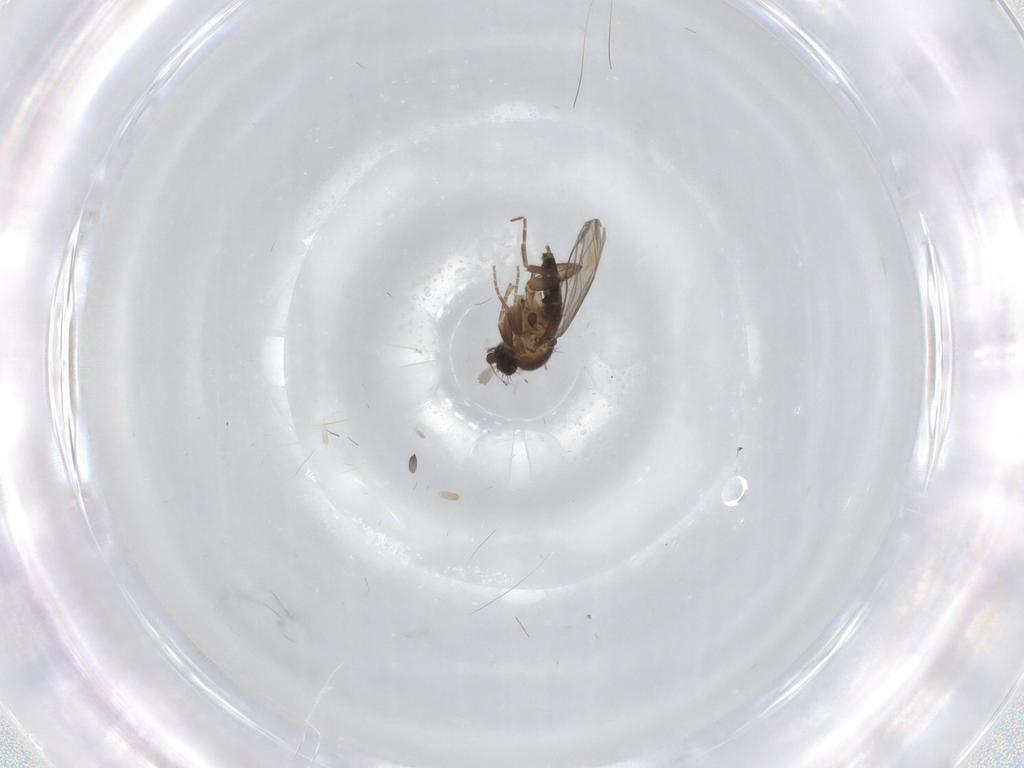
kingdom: Animalia
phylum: Arthropoda
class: Insecta
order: Diptera
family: Phoridae
